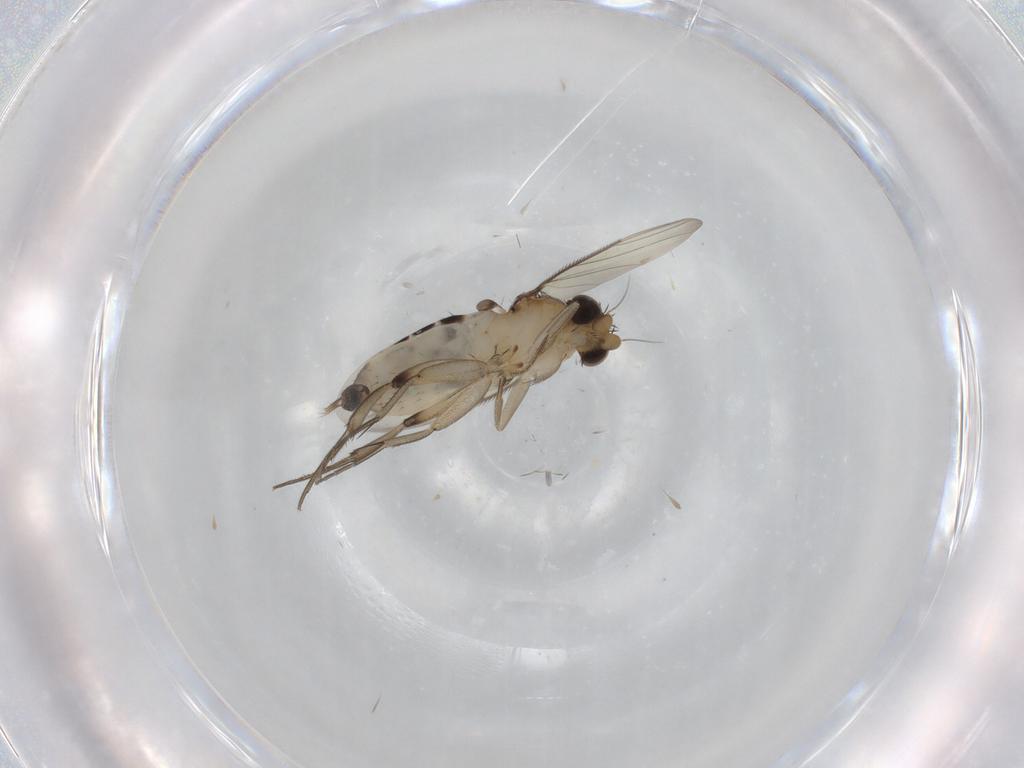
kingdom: Animalia
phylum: Arthropoda
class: Insecta
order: Diptera
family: Phoridae
